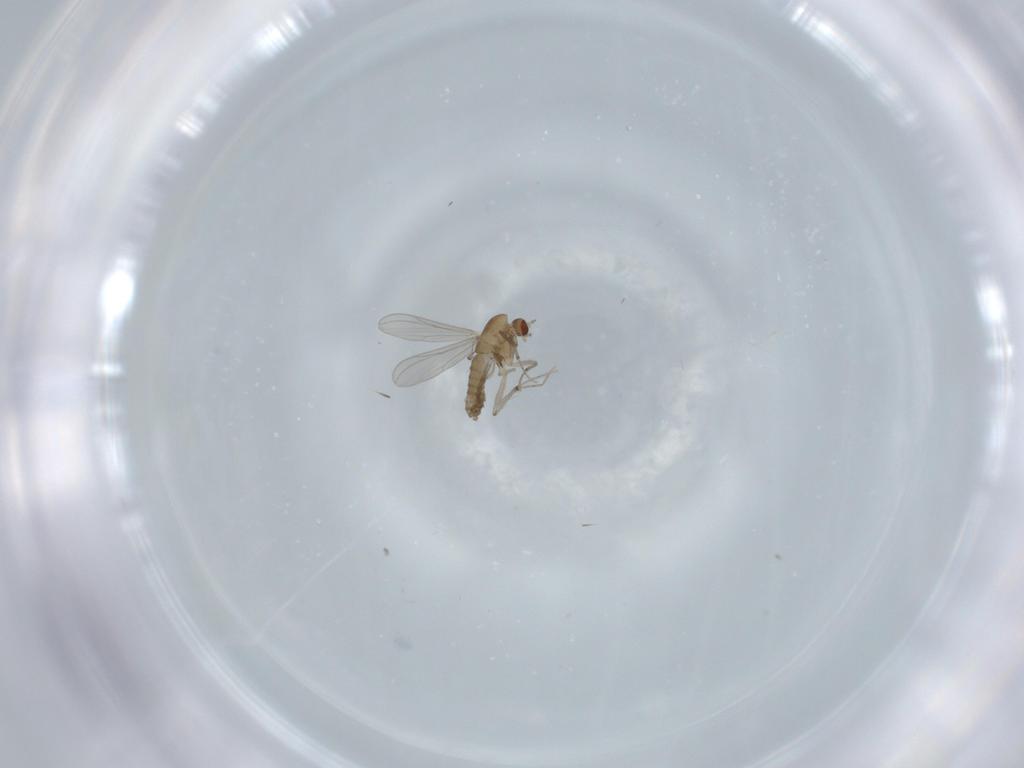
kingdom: Animalia
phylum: Arthropoda
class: Insecta
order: Diptera
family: Chironomidae
